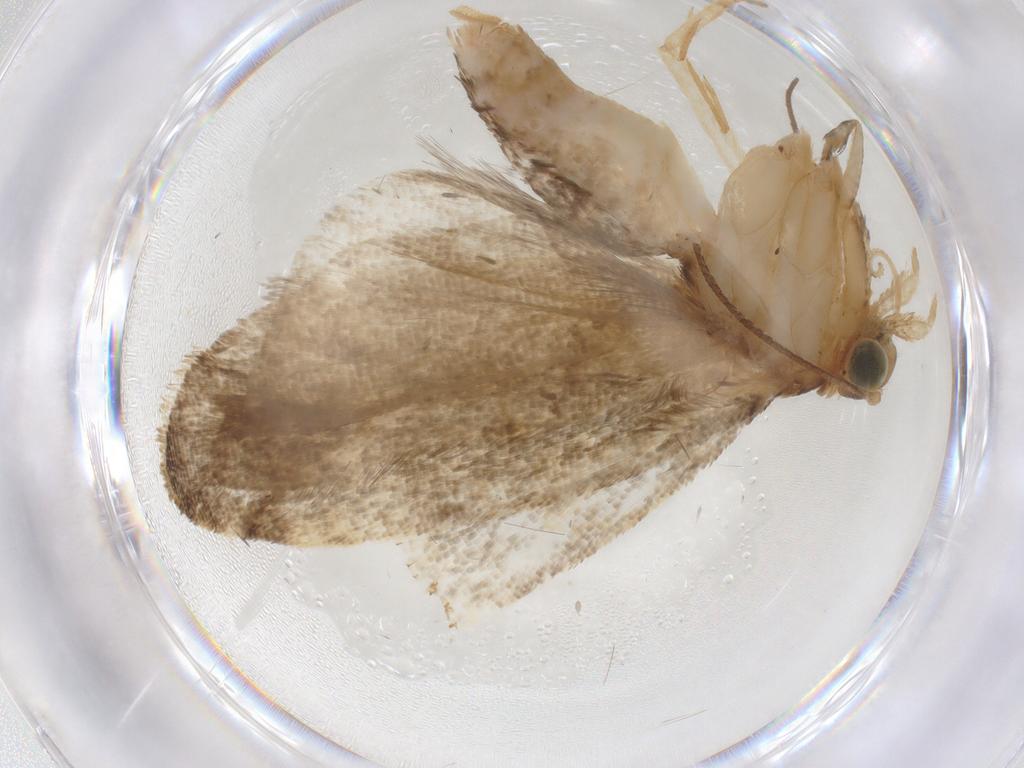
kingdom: Animalia
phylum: Arthropoda
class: Insecta
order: Lepidoptera
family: Tortricidae
